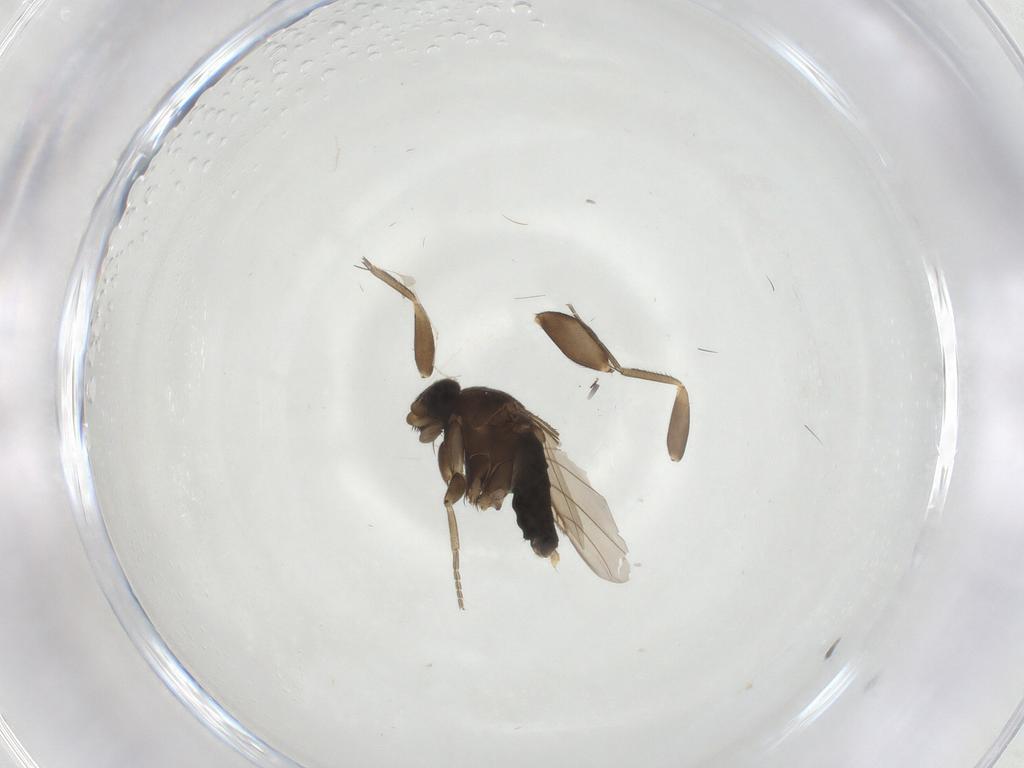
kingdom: Animalia
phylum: Arthropoda
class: Insecta
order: Diptera
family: Phoridae
